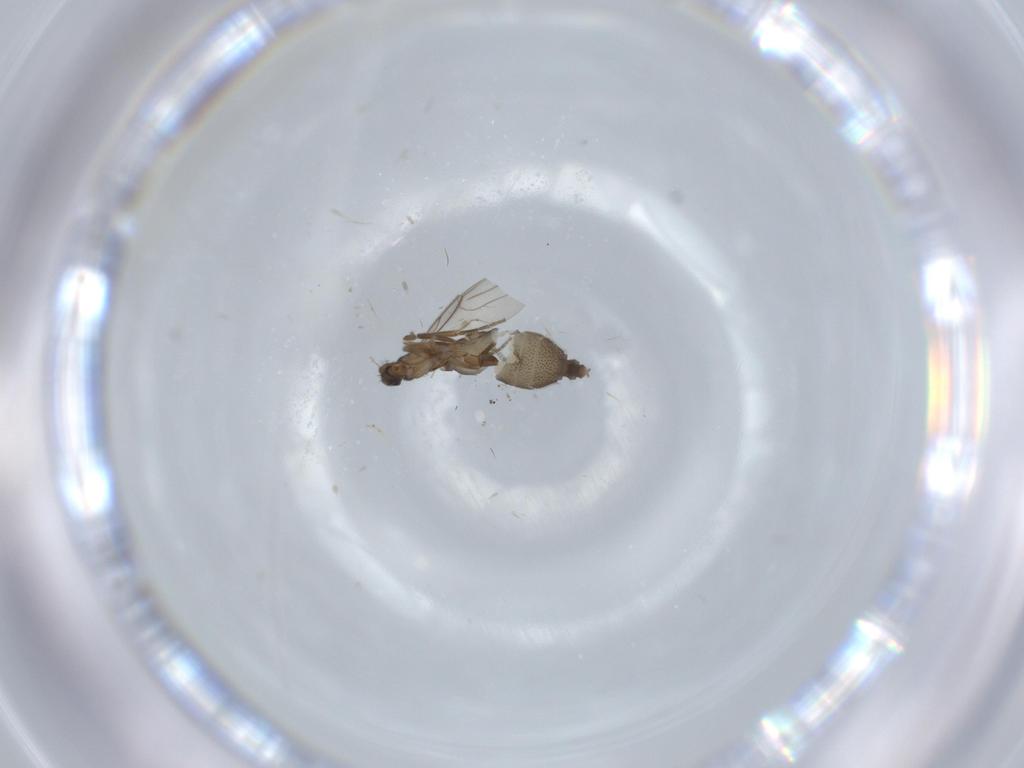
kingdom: Animalia
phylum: Arthropoda
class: Insecta
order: Diptera
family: Phoridae
